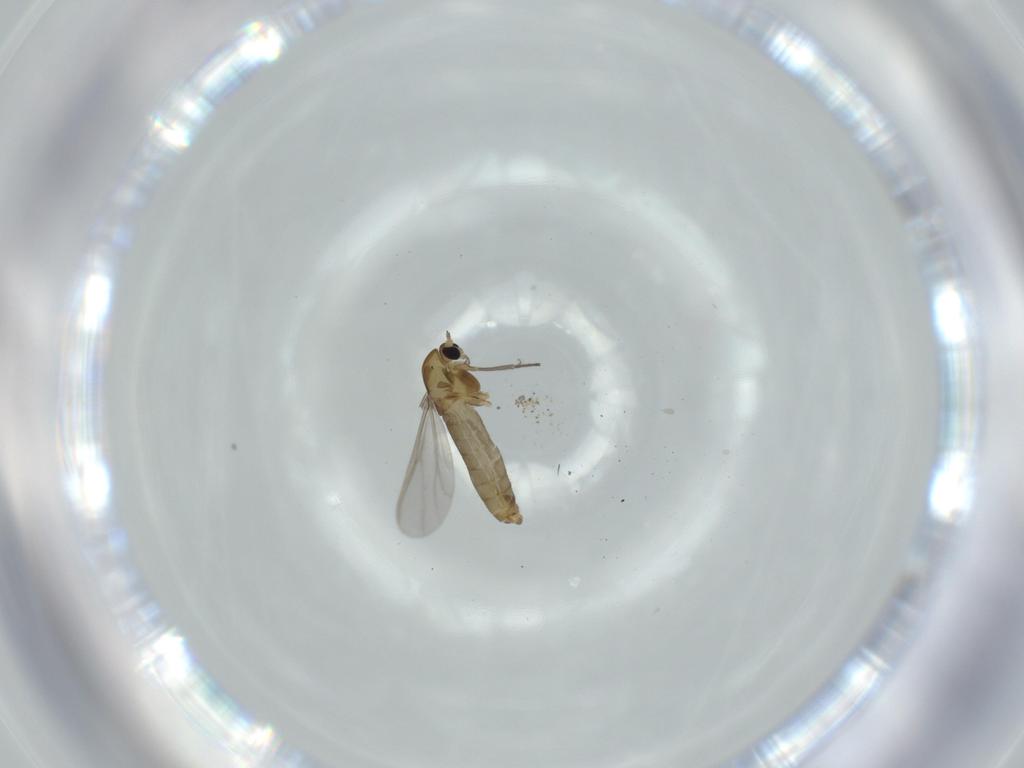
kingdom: Animalia
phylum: Arthropoda
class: Insecta
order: Diptera
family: Chironomidae
